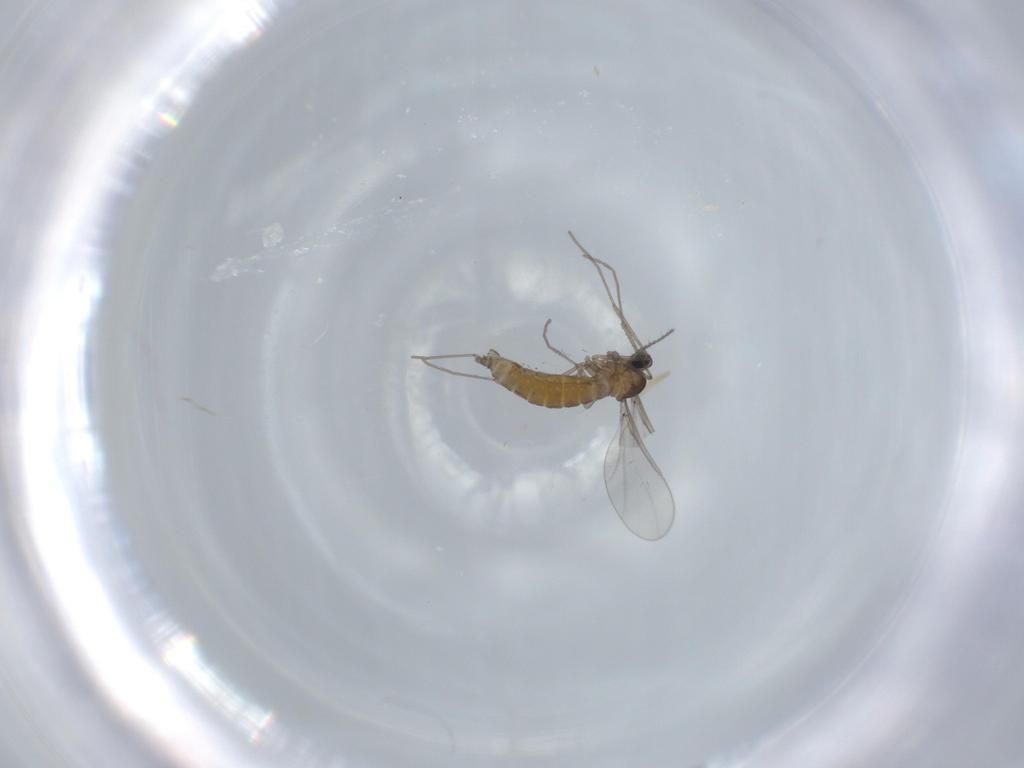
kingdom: Animalia
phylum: Arthropoda
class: Insecta
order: Diptera
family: Cecidomyiidae
